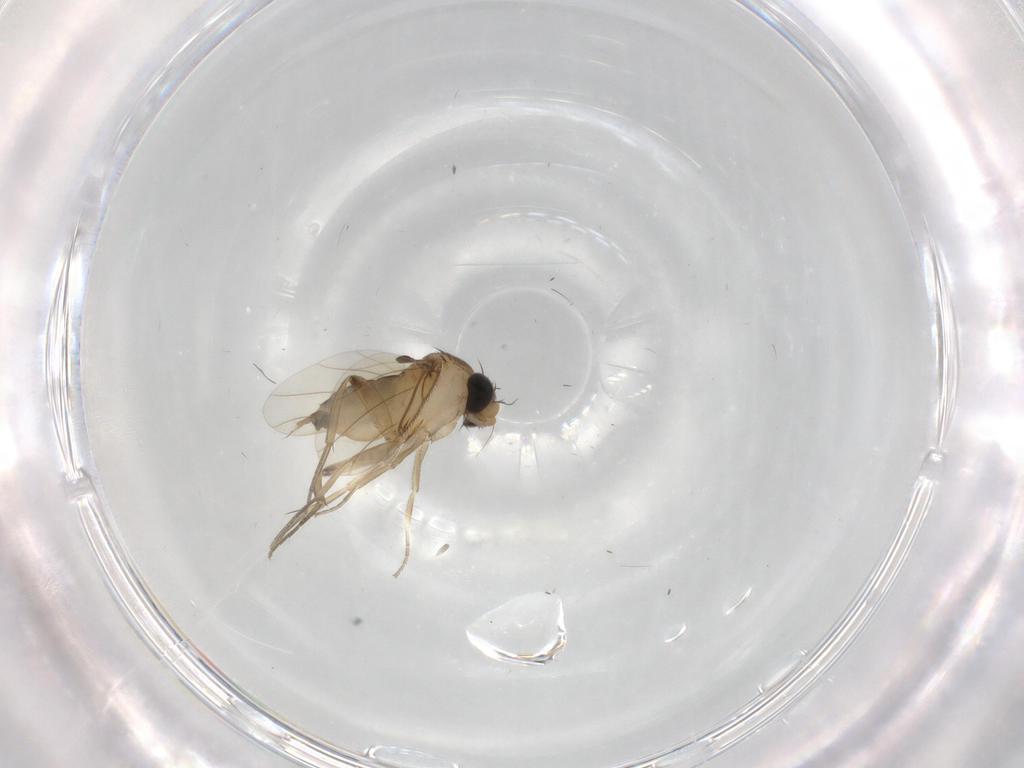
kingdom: Animalia
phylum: Arthropoda
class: Insecta
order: Diptera
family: Phoridae
